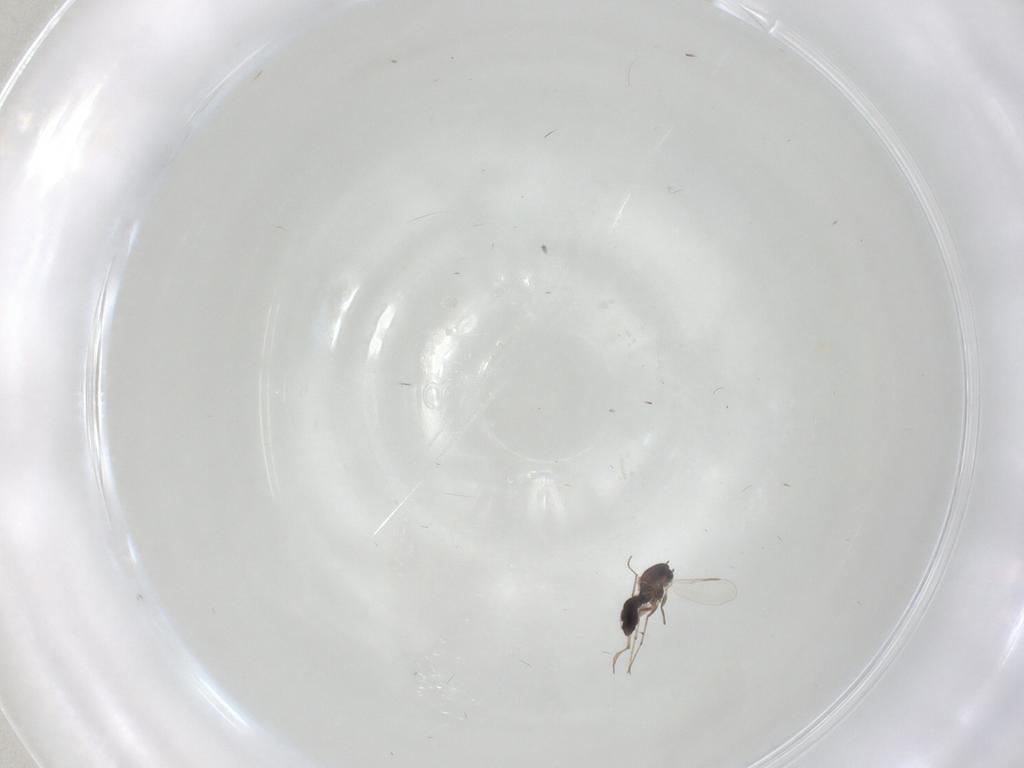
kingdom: Animalia
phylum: Arthropoda
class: Insecta
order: Diptera
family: Chironomidae
